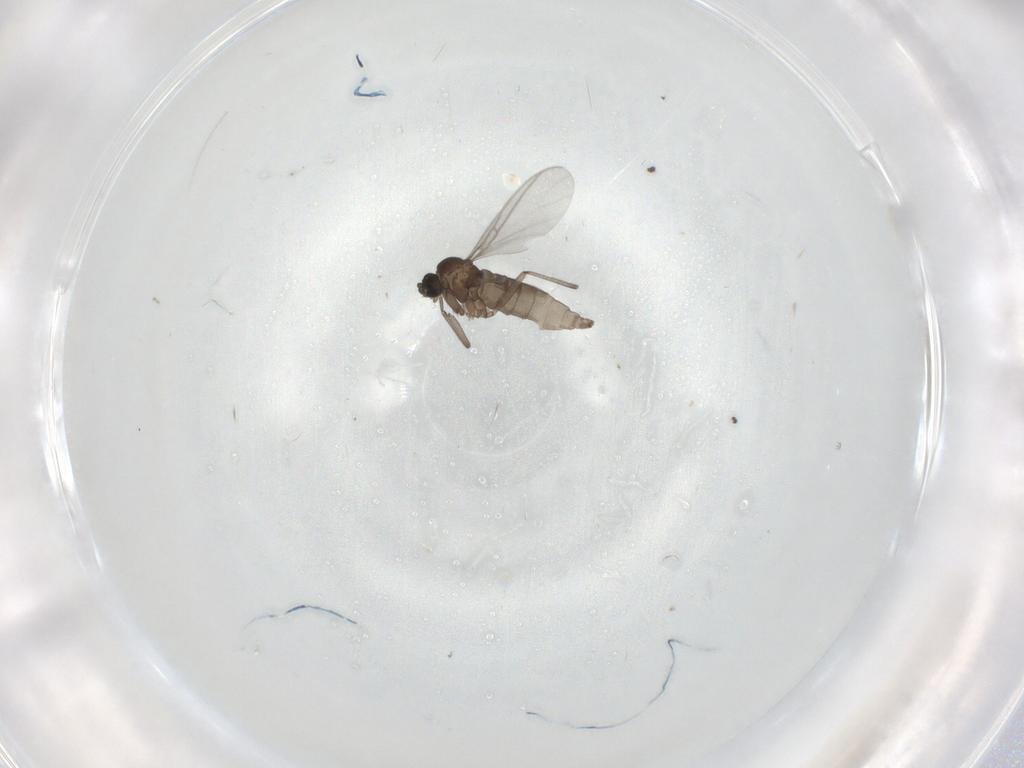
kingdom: Animalia
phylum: Arthropoda
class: Insecta
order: Diptera
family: Sciaridae
